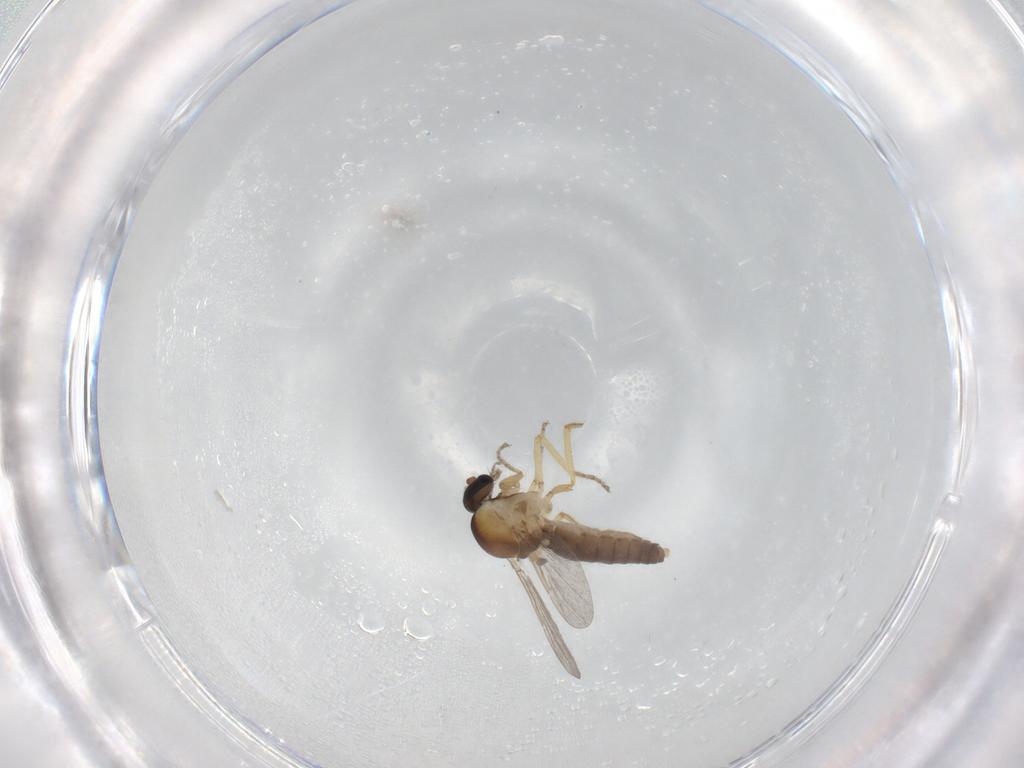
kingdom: Animalia
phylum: Arthropoda
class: Insecta
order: Diptera
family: Ceratopogonidae
